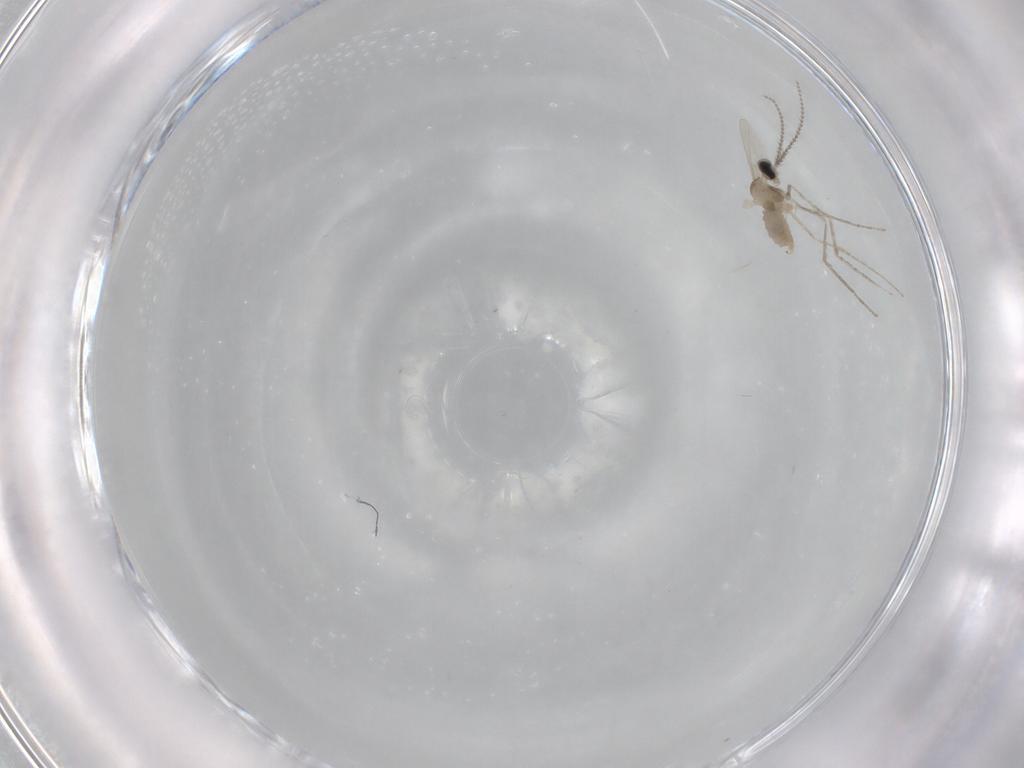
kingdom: Animalia
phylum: Arthropoda
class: Insecta
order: Diptera
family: Cecidomyiidae
